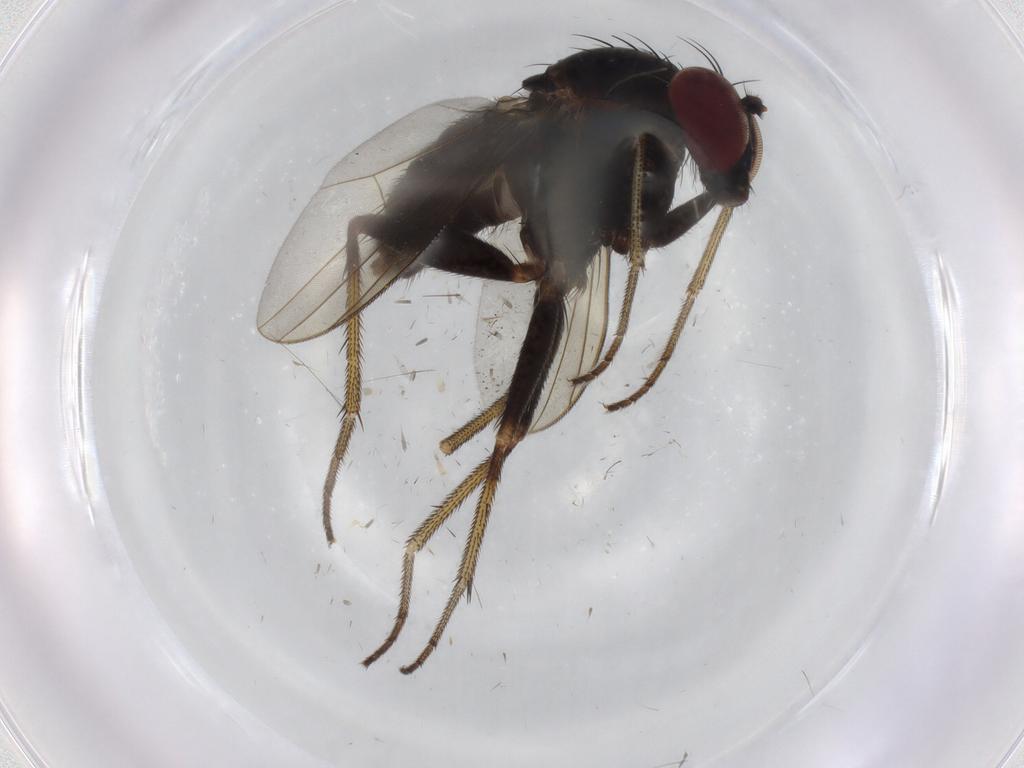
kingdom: Animalia
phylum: Arthropoda
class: Insecta
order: Diptera
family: Dolichopodidae
